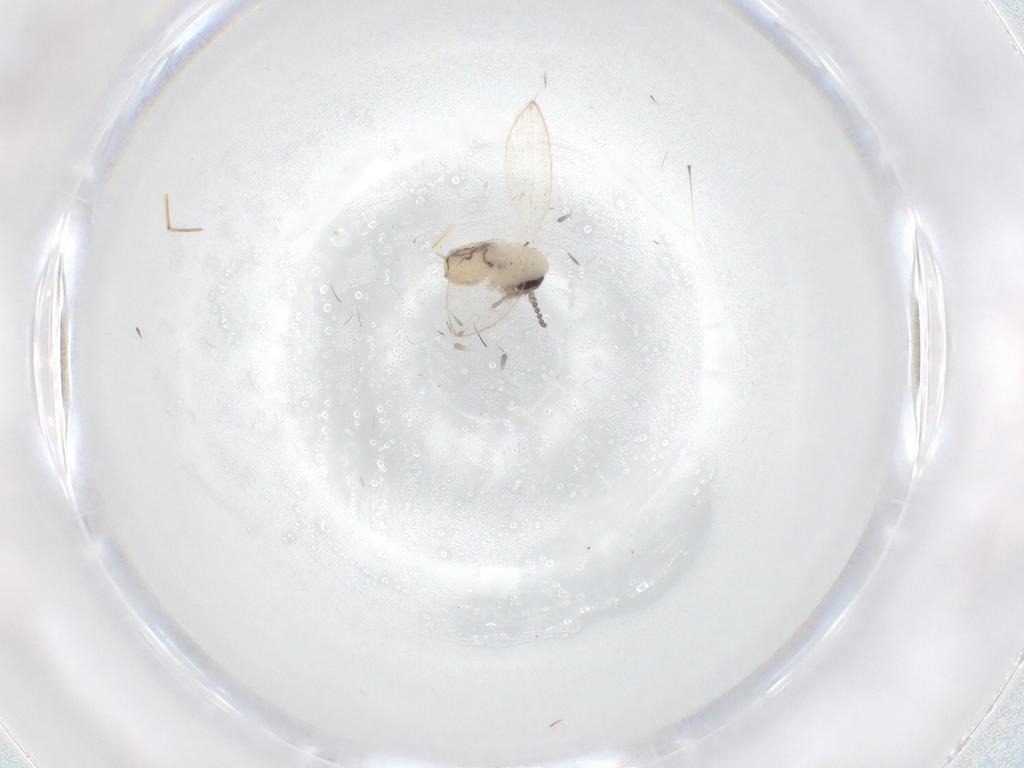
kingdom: Animalia
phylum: Arthropoda
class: Insecta
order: Diptera
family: Psychodidae
